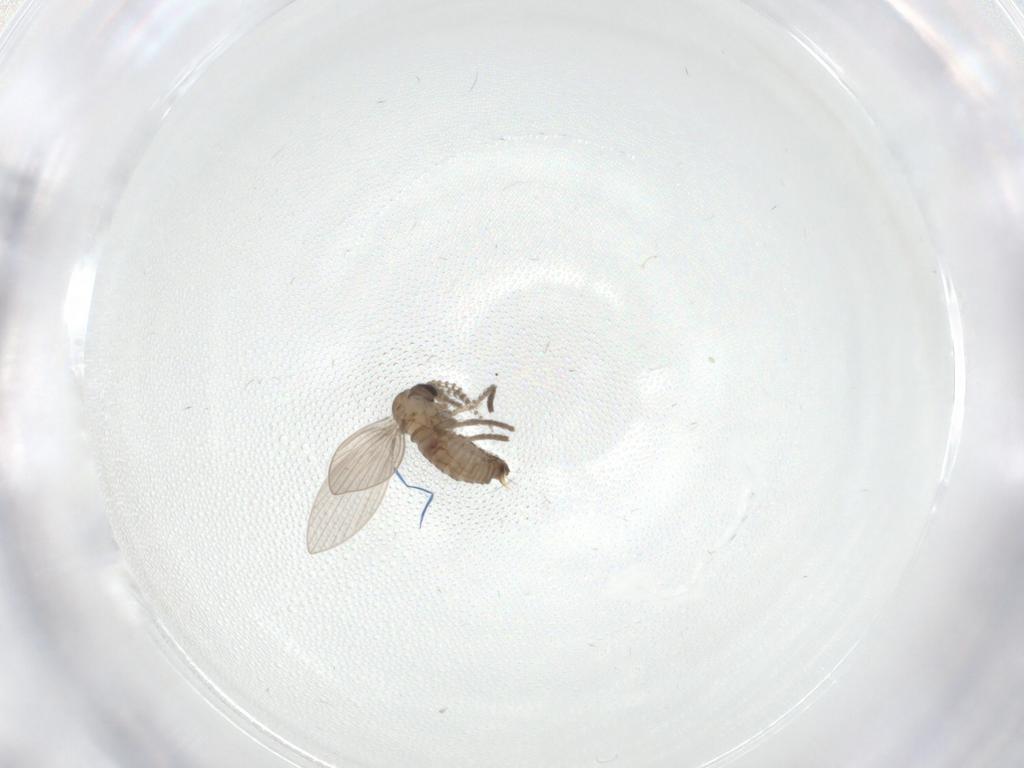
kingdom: Animalia
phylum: Arthropoda
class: Insecta
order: Diptera
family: Psychodidae
